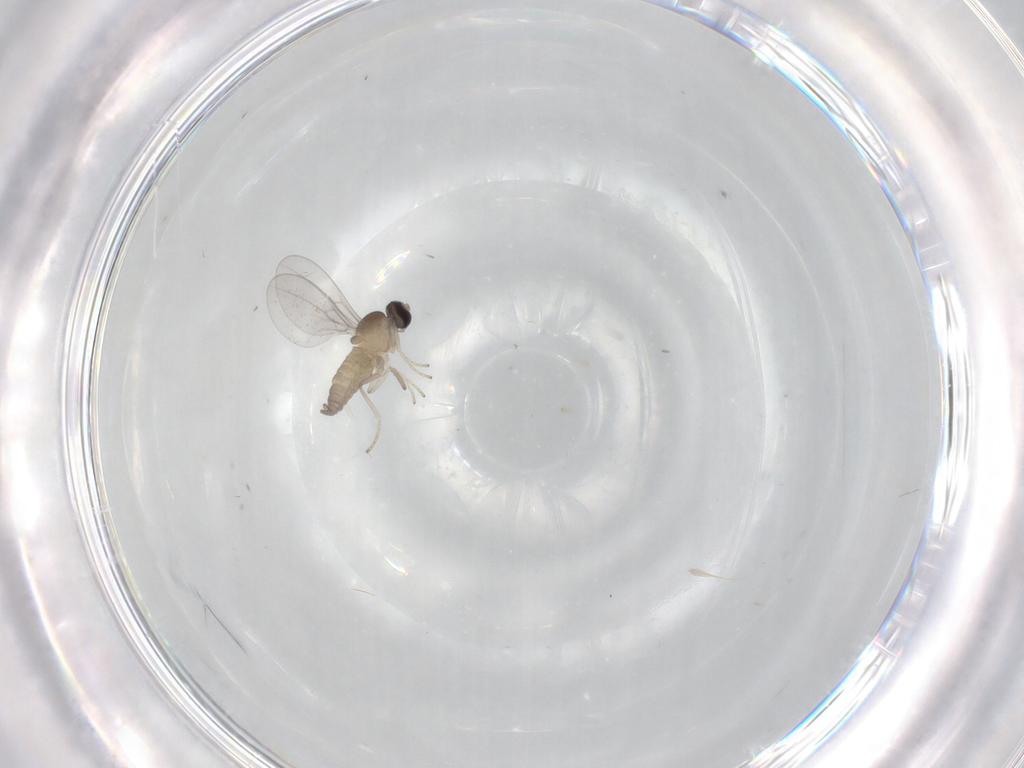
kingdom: Animalia
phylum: Arthropoda
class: Insecta
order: Diptera
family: Cecidomyiidae
